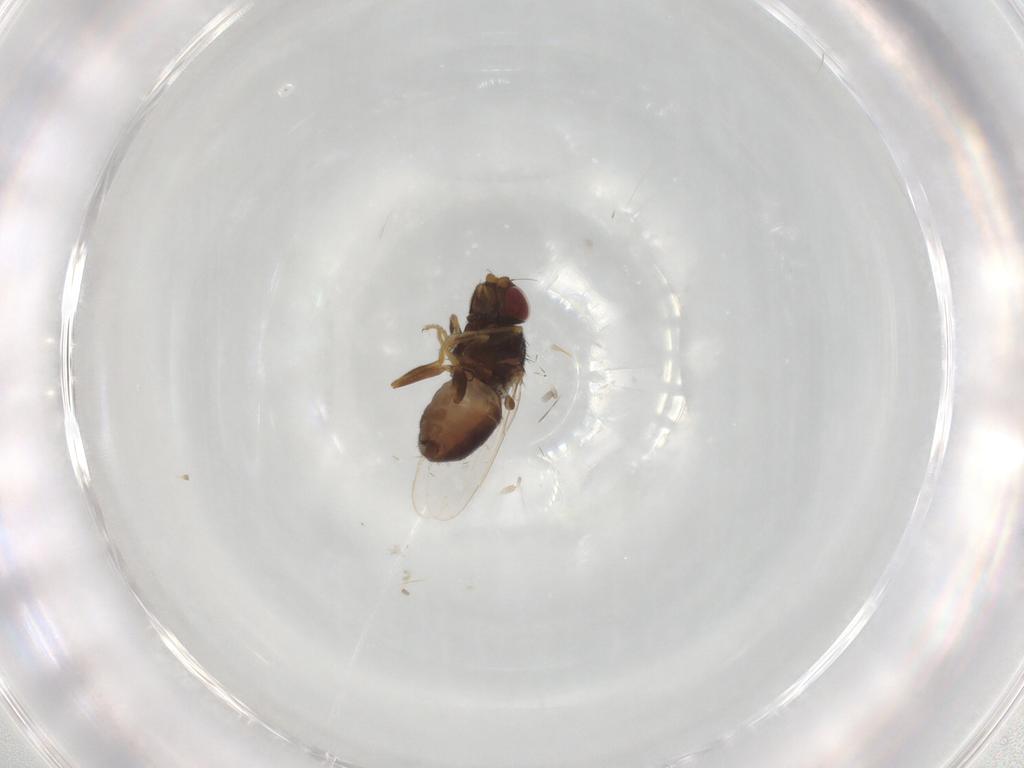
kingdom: Animalia
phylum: Arthropoda
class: Insecta
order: Diptera
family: Chloropidae
